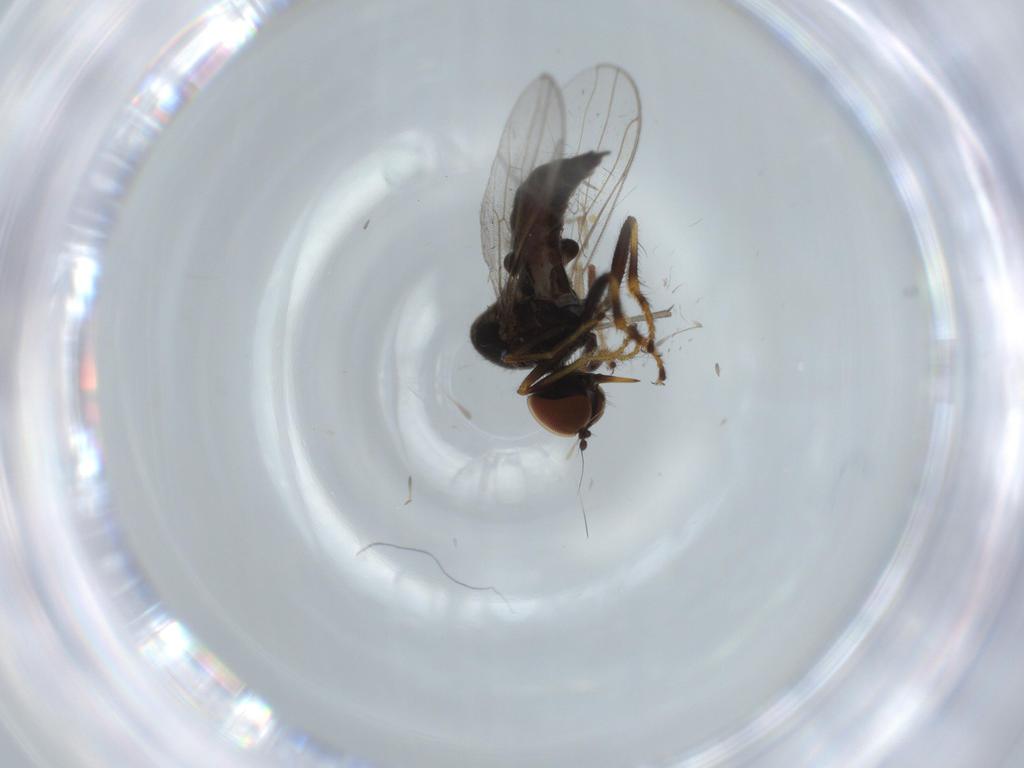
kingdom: Animalia
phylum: Arthropoda
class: Insecta
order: Diptera
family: Hybotidae
